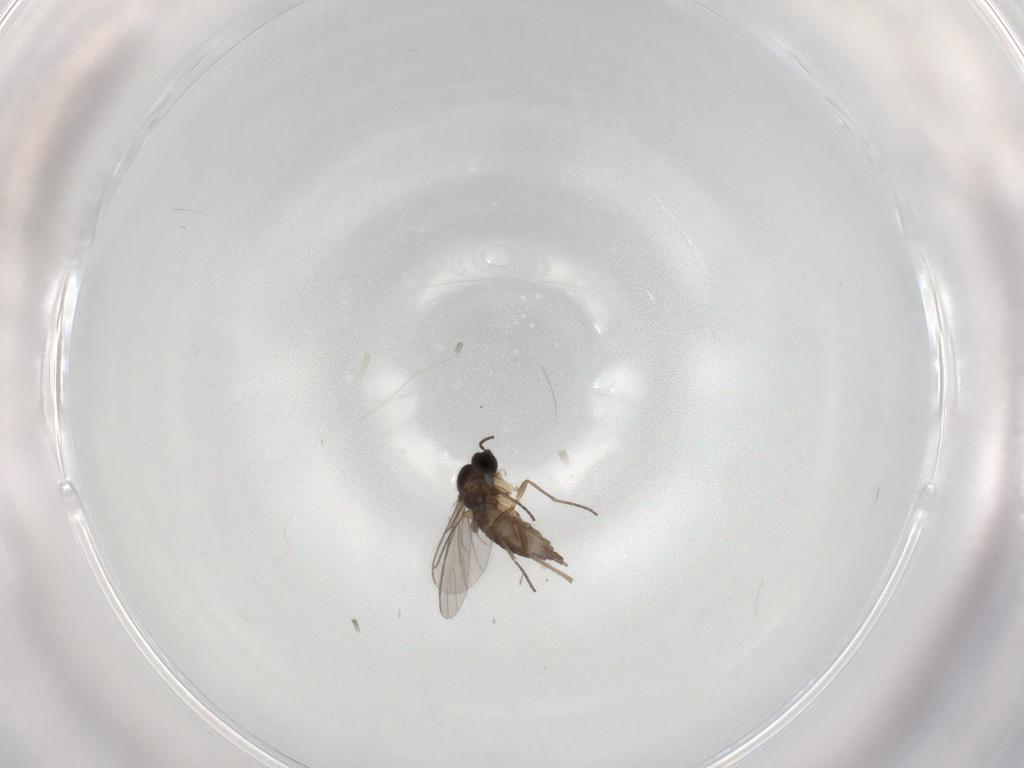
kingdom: Animalia
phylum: Arthropoda
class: Insecta
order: Diptera
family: Sciaridae
